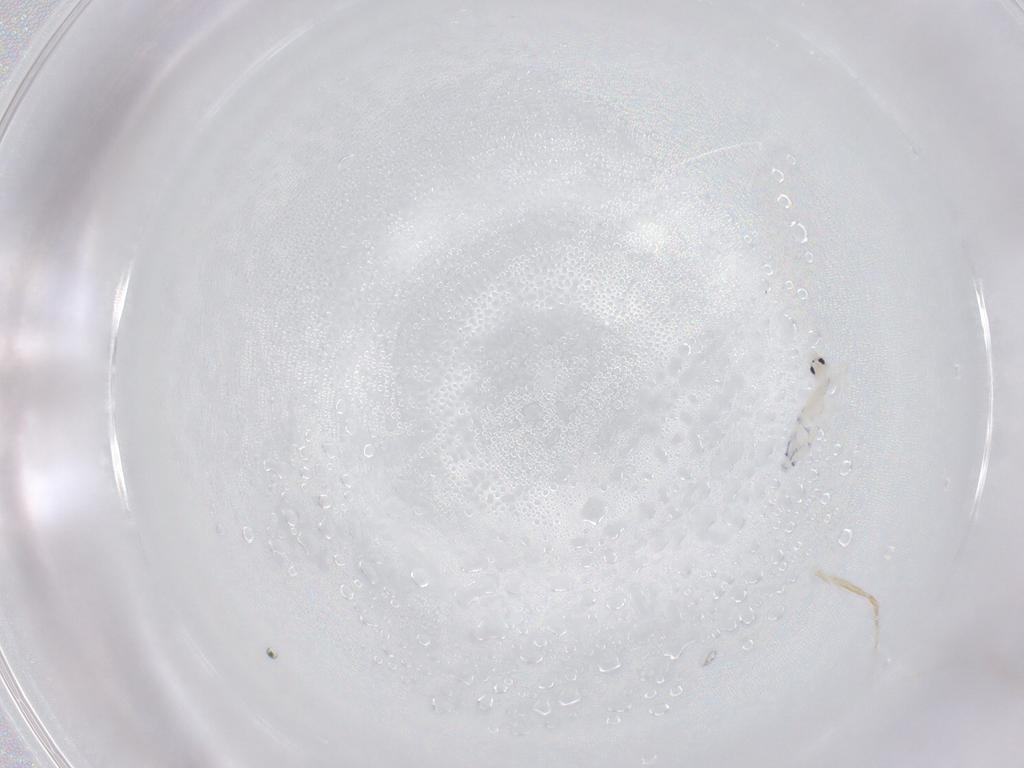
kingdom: Animalia
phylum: Arthropoda
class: Collembola
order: Entomobryomorpha
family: Entomobryidae
